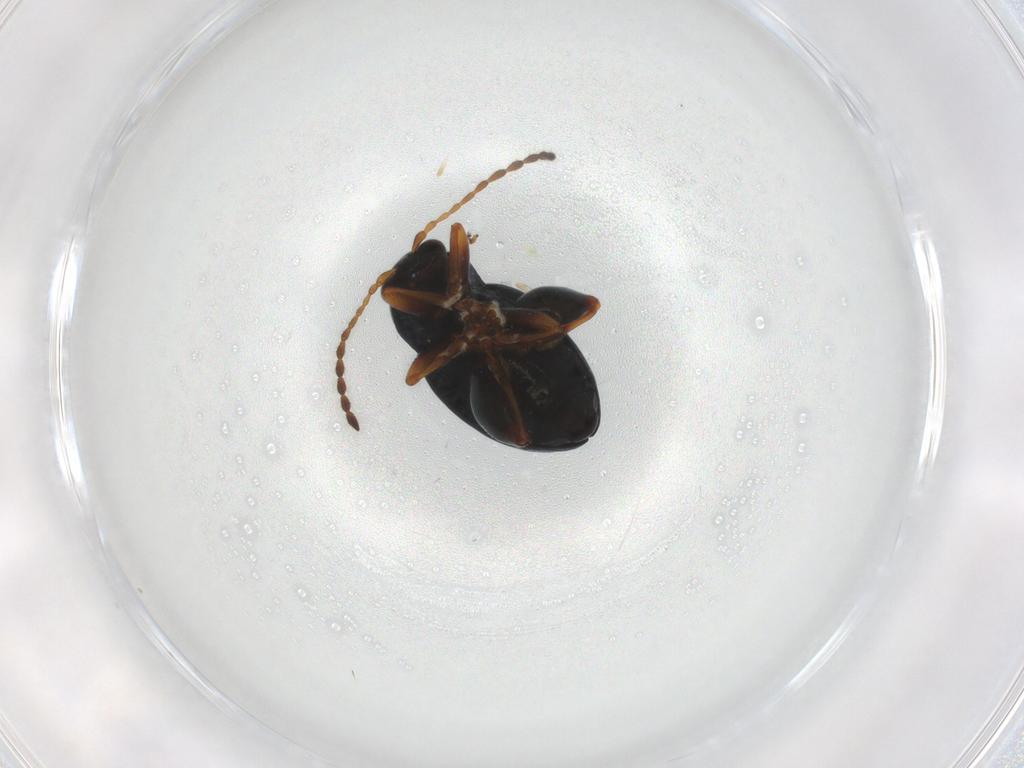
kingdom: Animalia
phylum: Arthropoda
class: Insecta
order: Coleoptera
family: Chrysomelidae
